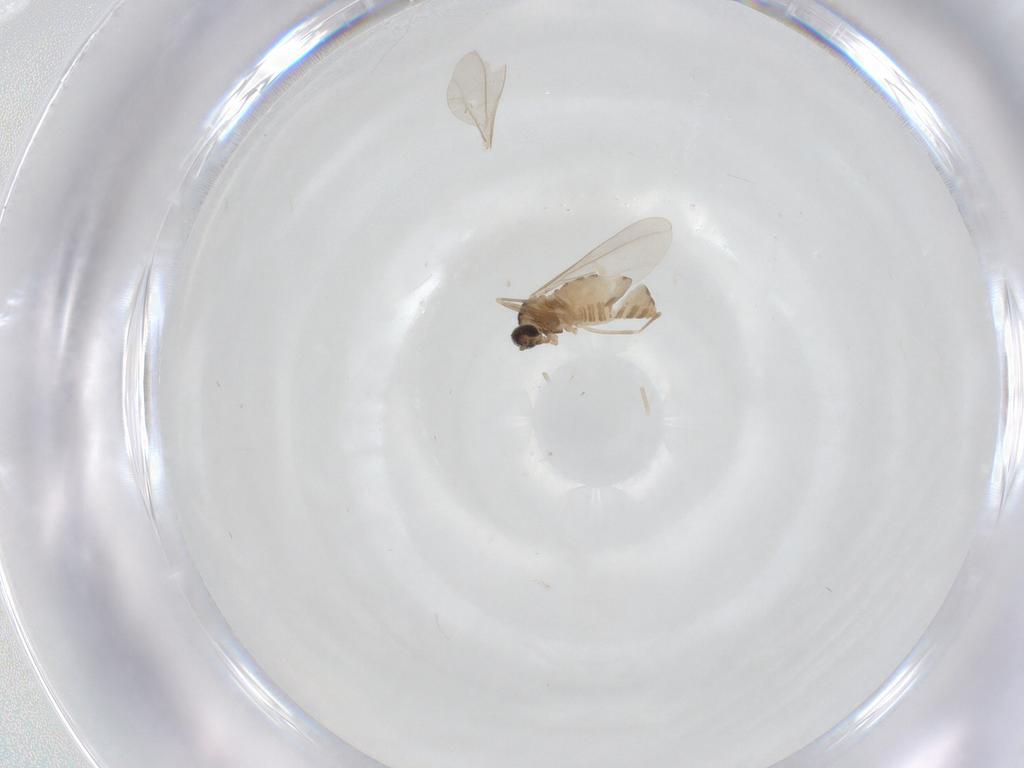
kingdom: Animalia
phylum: Arthropoda
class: Insecta
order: Diptera
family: Cecidomyiidae
